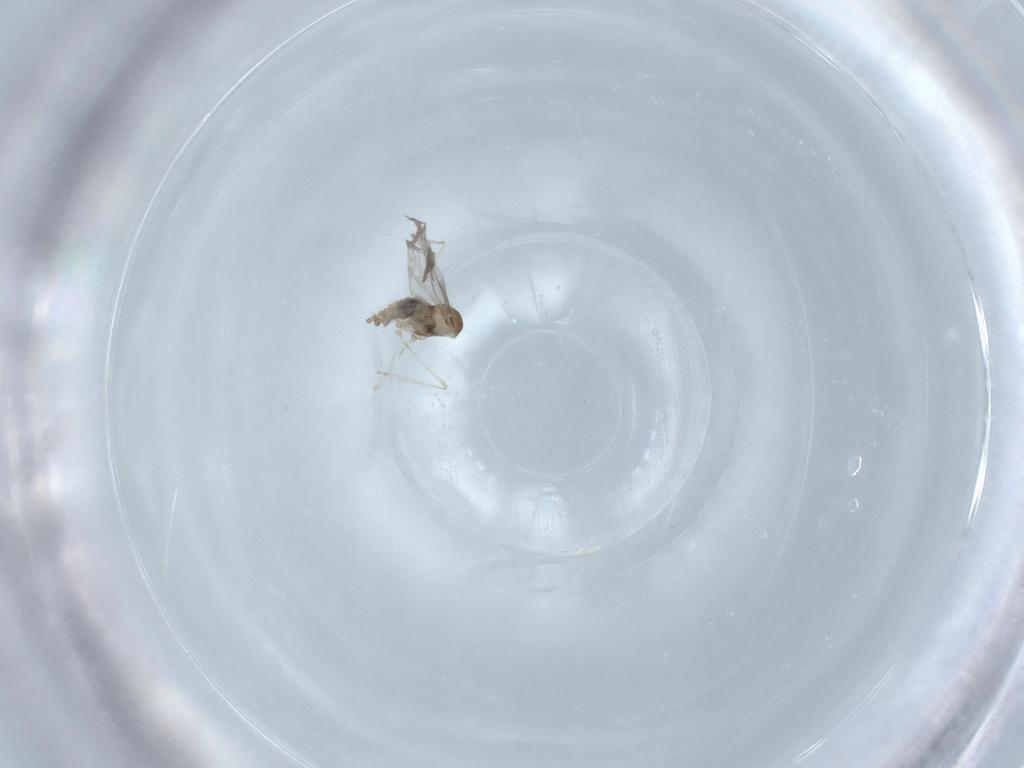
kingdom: Animalia
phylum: Arthropoda
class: Insecta
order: Diptera
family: Cecidomyiidae
